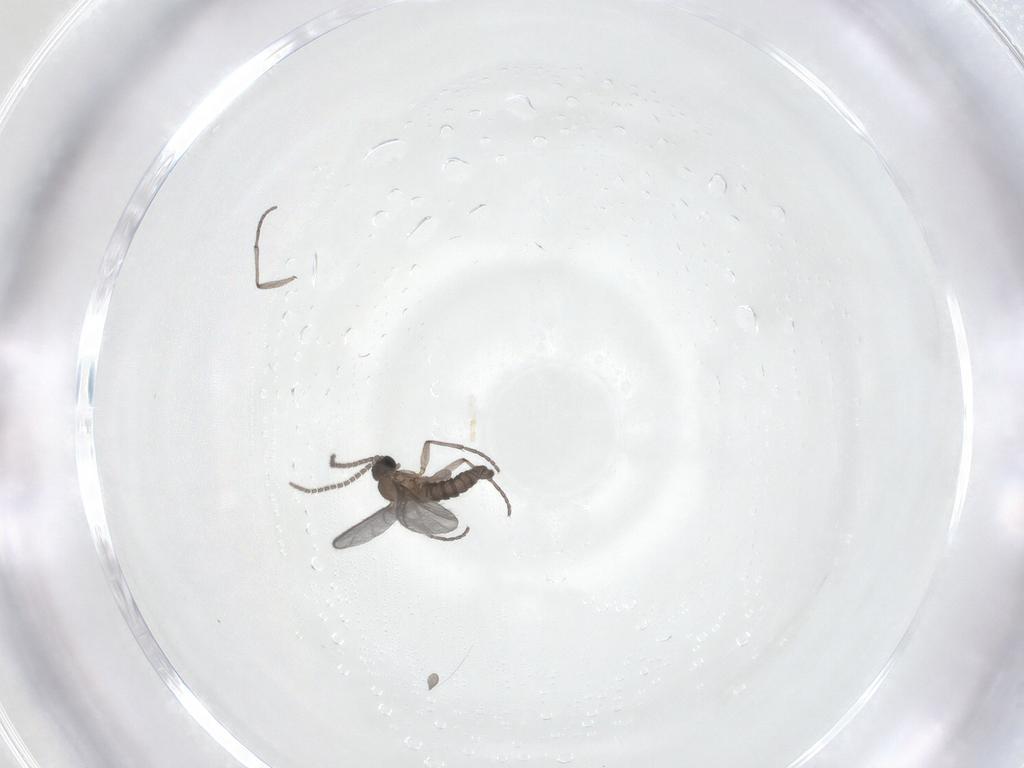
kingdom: Animalia
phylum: Arthropoda
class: Insecta
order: Diptera
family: Sciaridae
